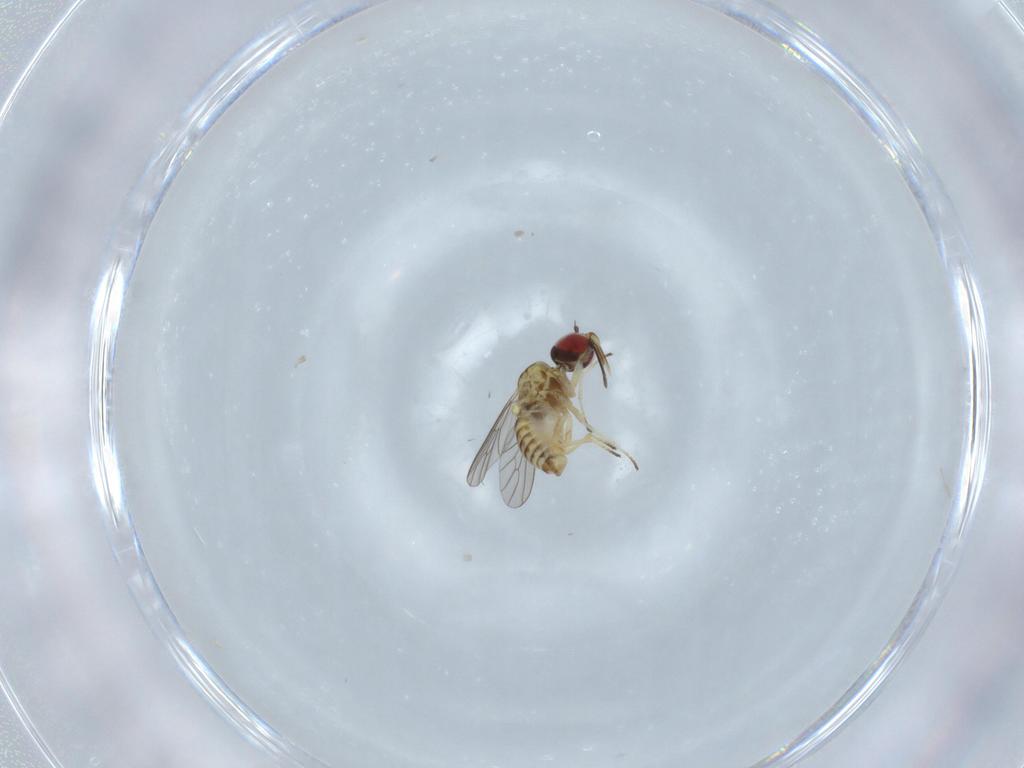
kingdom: Animalia
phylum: Arthropoda
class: Insecta
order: Diptera
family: Bombyliidae
